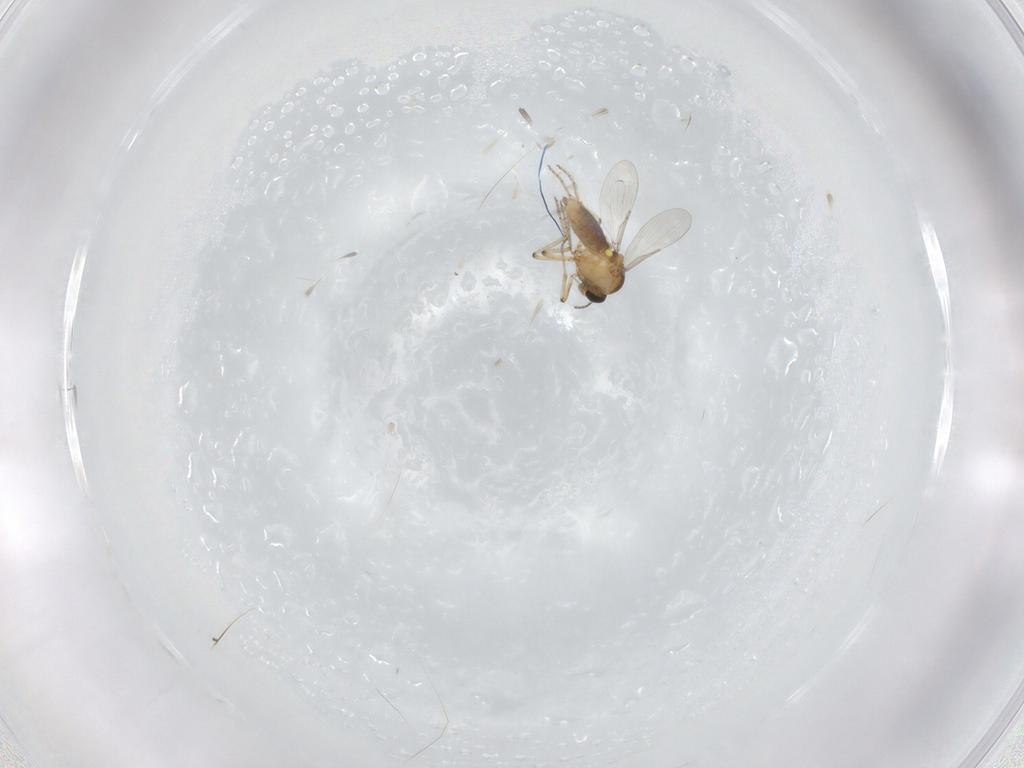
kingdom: Animalia
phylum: Arthropoda
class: Insecta
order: Diptera
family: Ceratopogonidae
